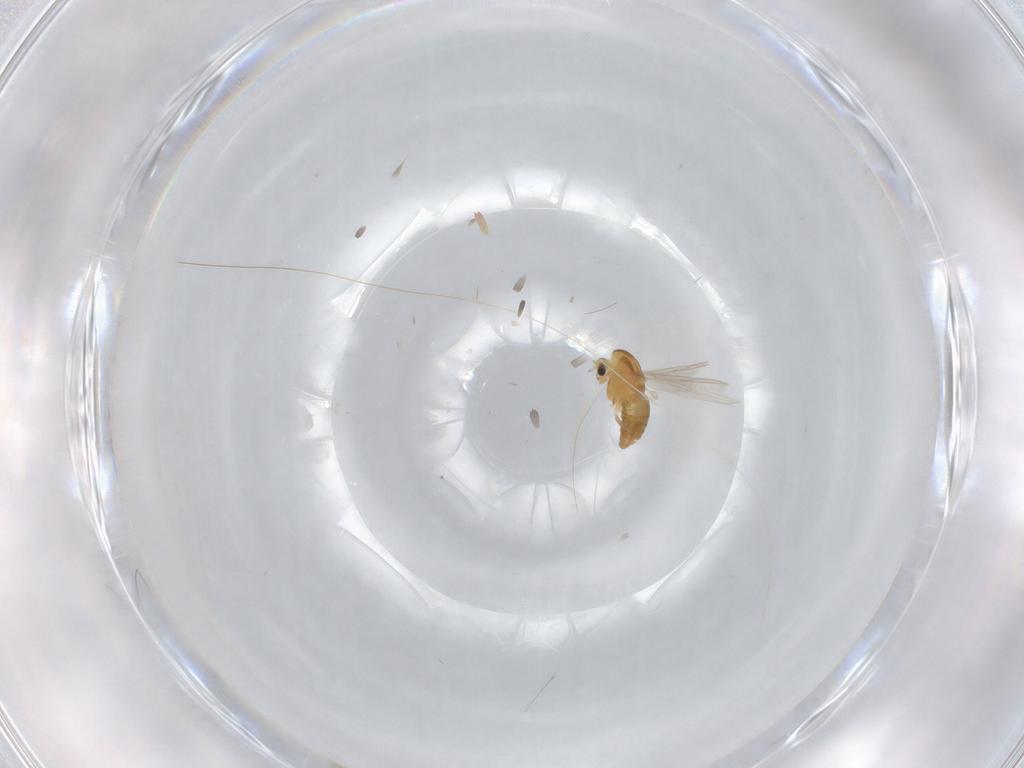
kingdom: Animalia
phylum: Arthropoda
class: Insecta
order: Diptera
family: Chironomidae
